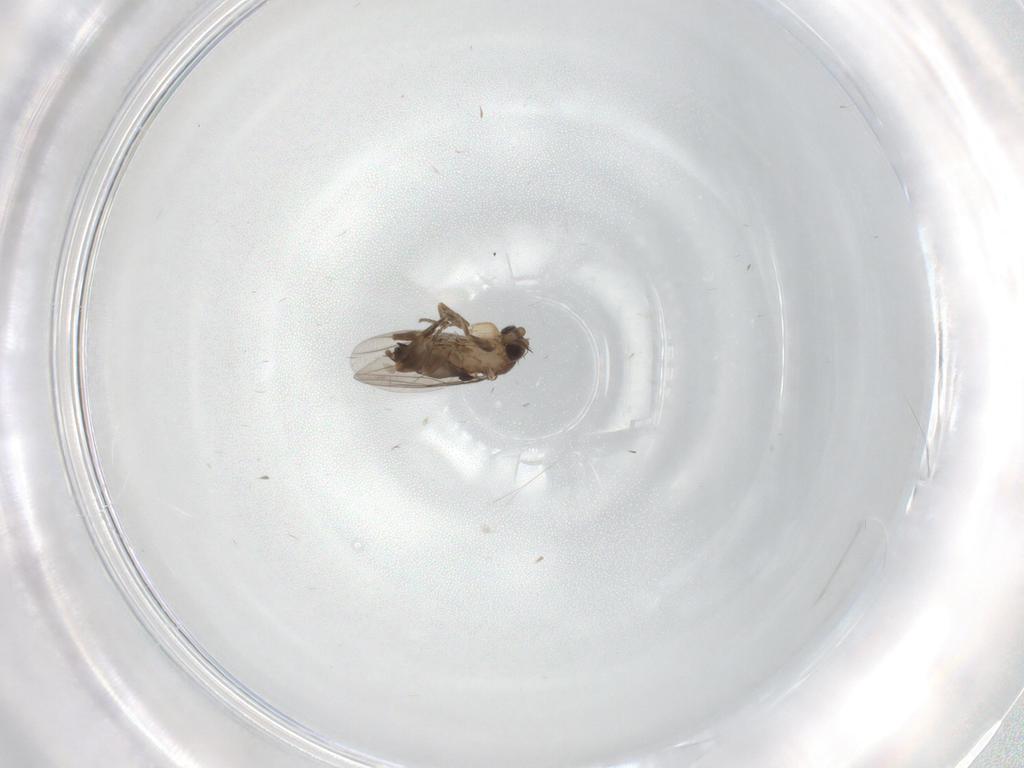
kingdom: Animalia
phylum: Arthropoda
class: Insecta
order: Diptera
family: Phoridae
